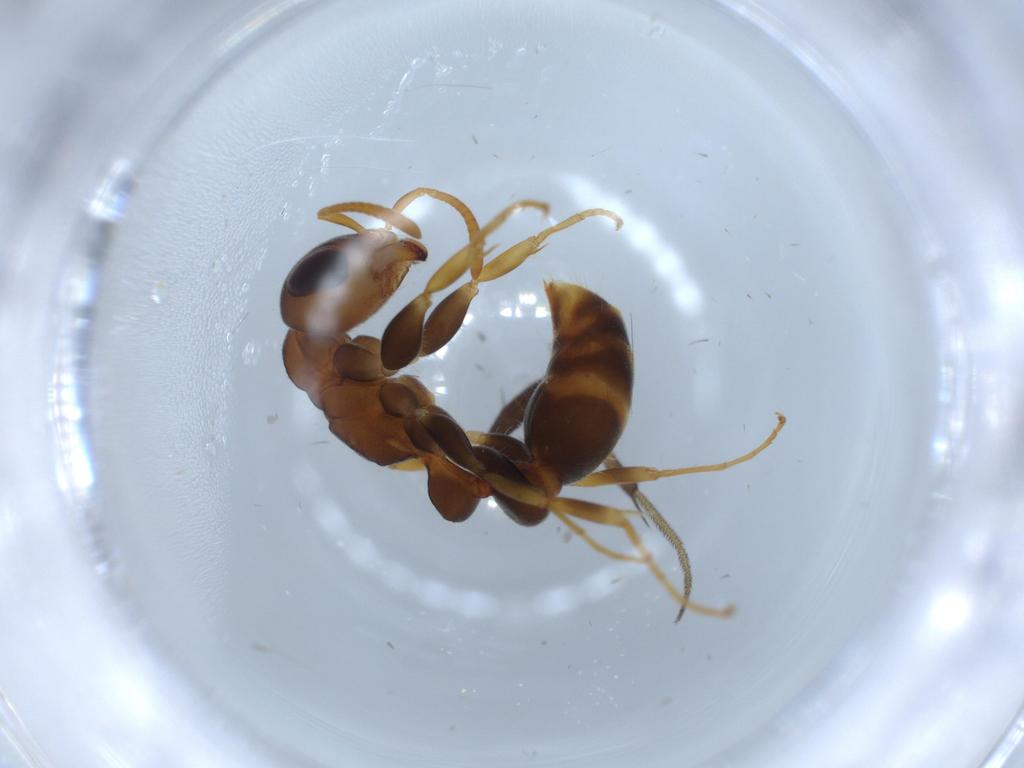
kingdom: Animalia
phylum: Arthropoda
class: Insecta
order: Hymenoptera
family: Formicidae
